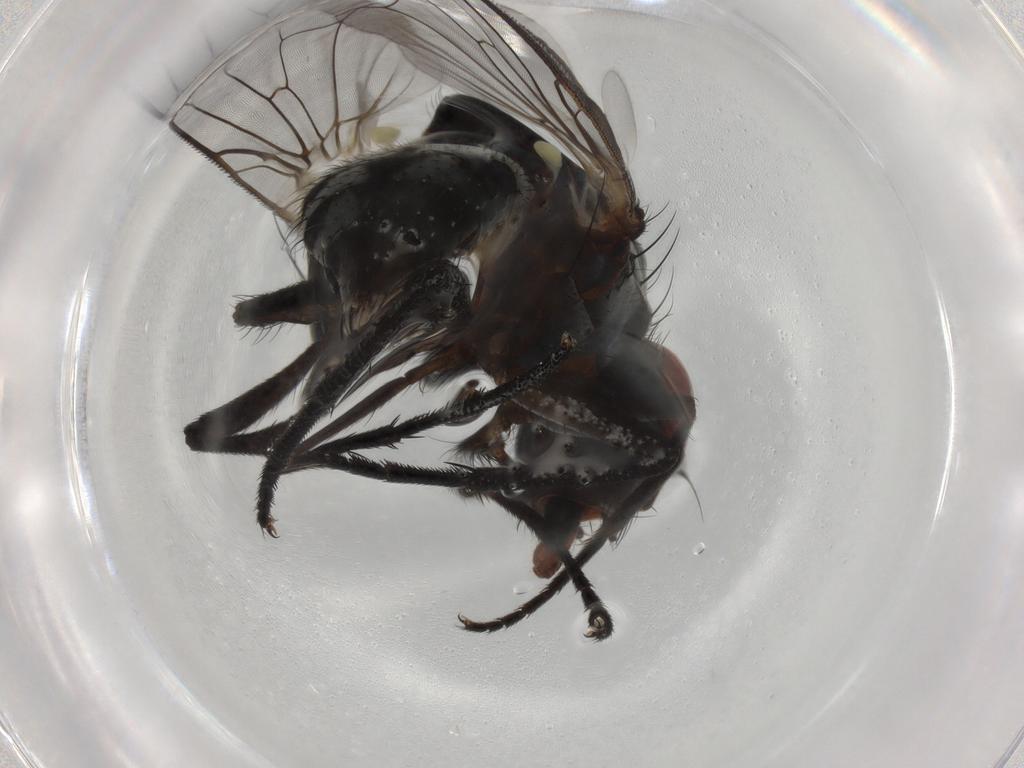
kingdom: Animalia
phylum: Arthropoda
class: Insecta
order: Diptera
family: Anthomyiidae
